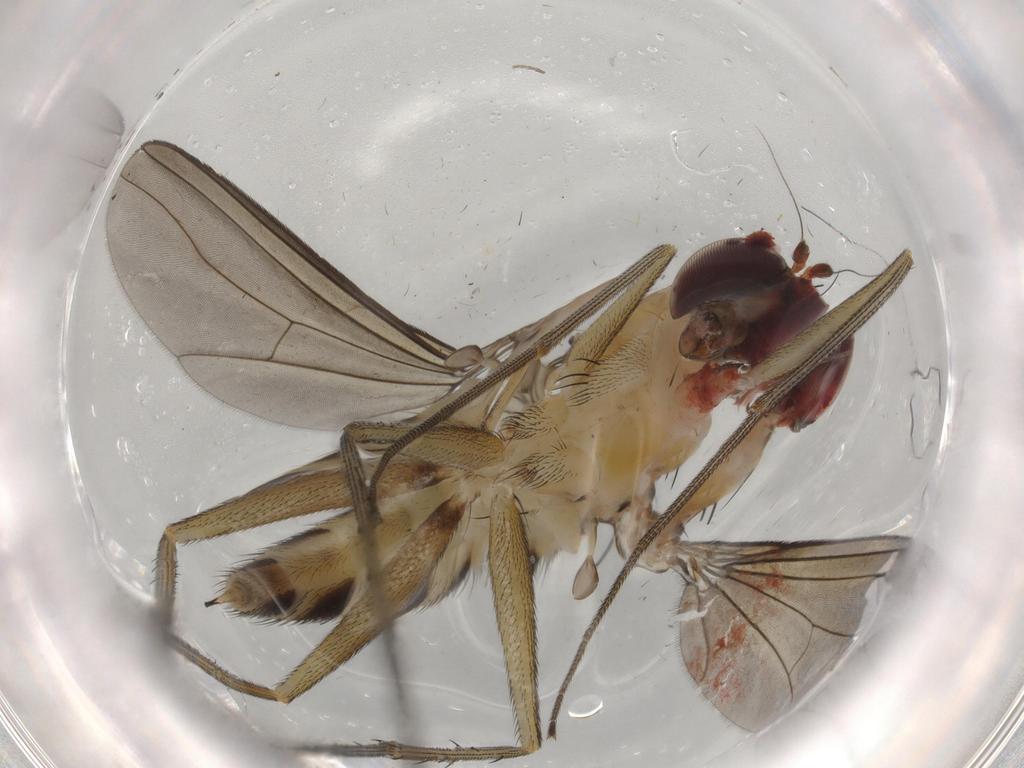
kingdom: Animalia
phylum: Arthropoda
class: Insecta
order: Diptera
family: Dolichopodidae
